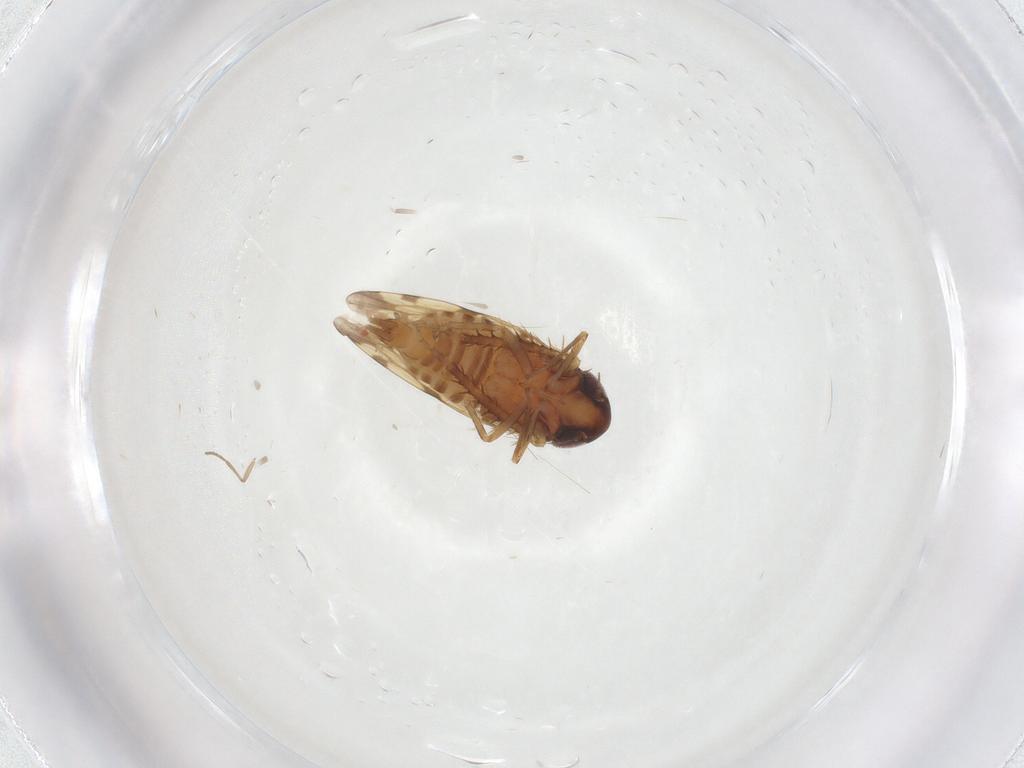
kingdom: Animalia
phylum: Arthropoda
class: Insecta
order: Hemiptera
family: Cicadellidae
